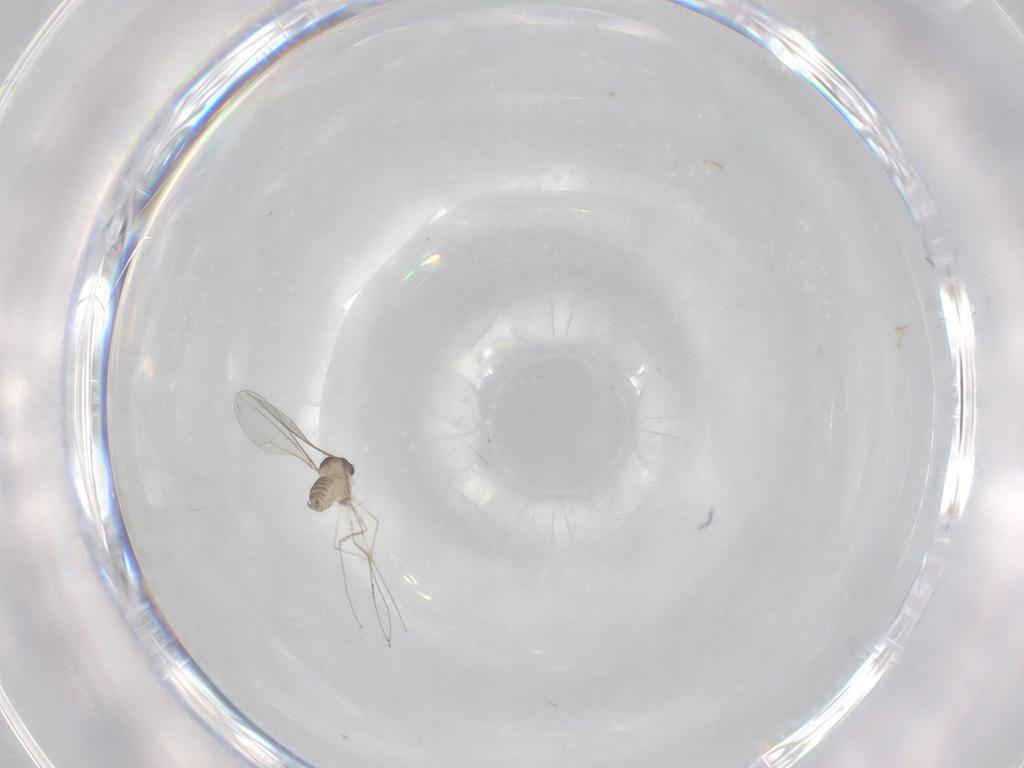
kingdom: Animalia
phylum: Arthropoda
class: Insecta
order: Diptera
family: Cecidomyiidae
